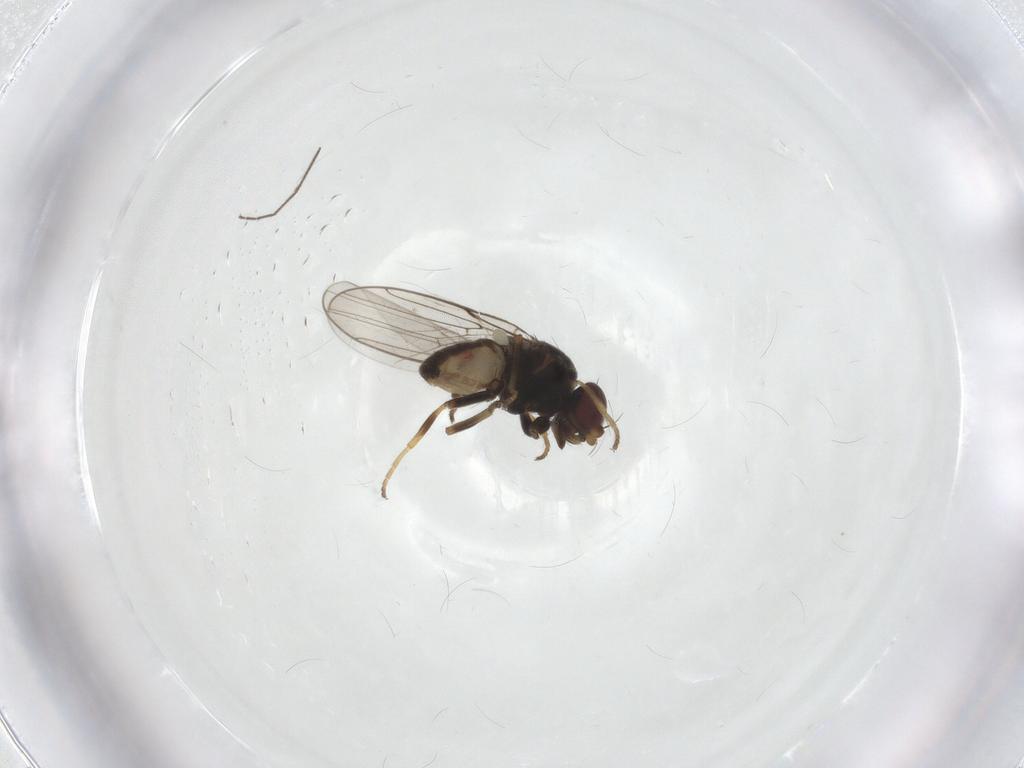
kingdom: Animalia
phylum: Arthropoda
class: Insecta
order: Diptera
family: Chloropidae
